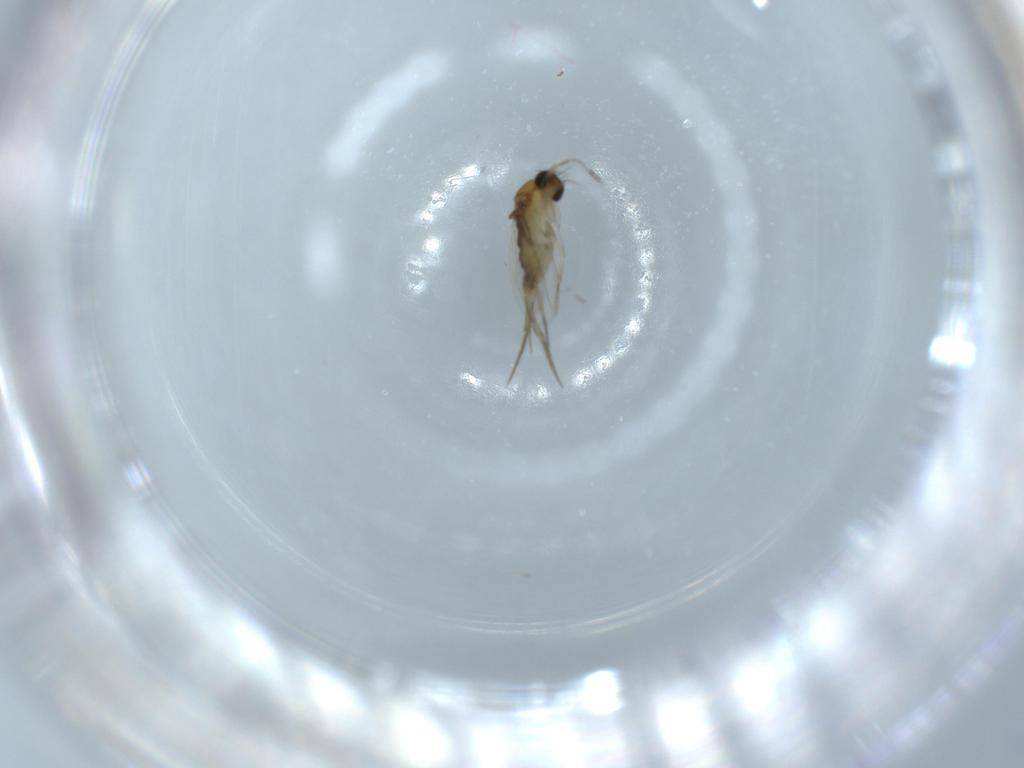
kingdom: Animalia
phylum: Arthropoda
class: Insecta
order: Diptera
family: Phoridae
